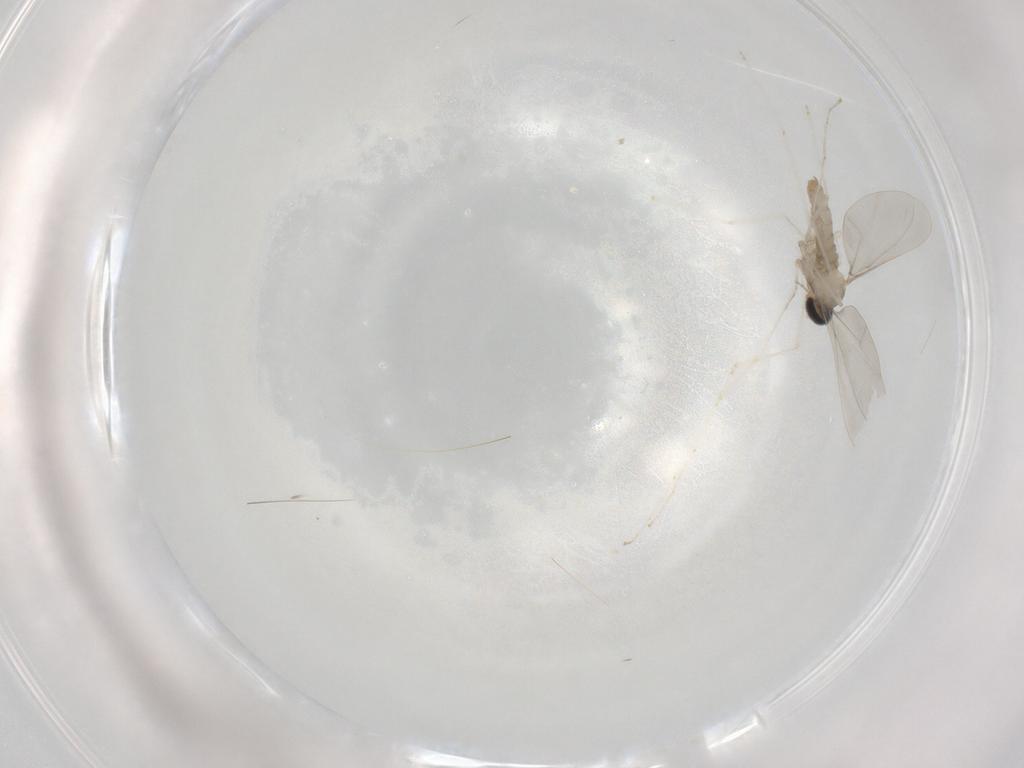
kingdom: Animalia
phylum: Arthropoda
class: Insecta
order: Diptera
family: Cecidomyiidae
